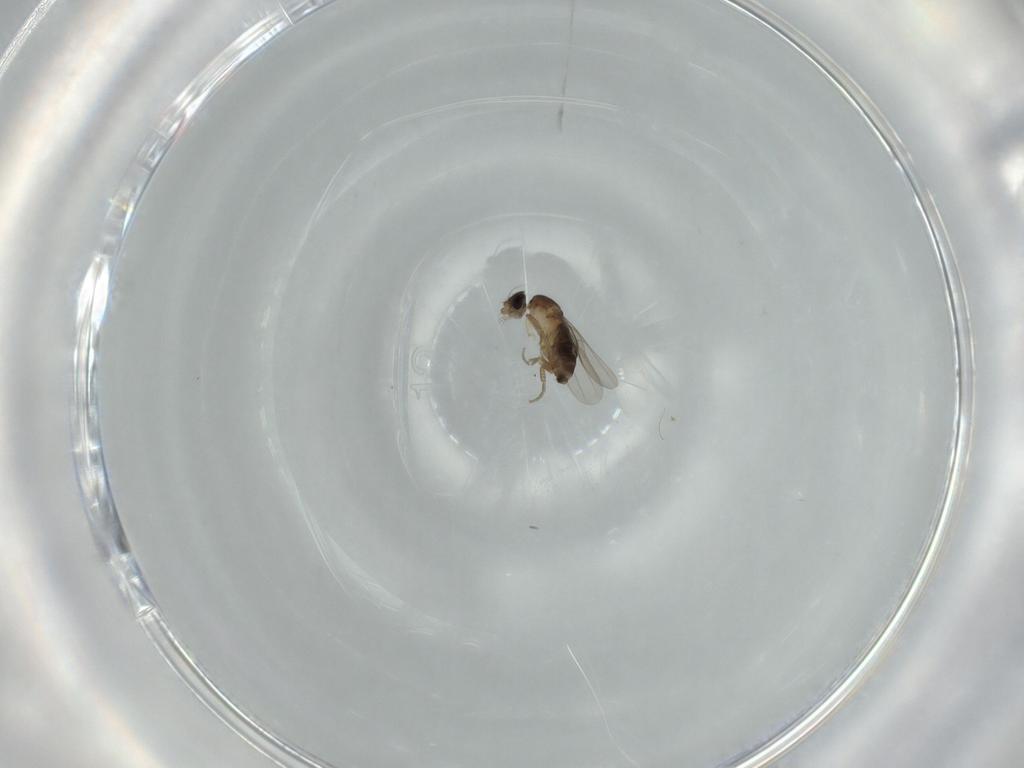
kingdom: Animalia
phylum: Arthropoda
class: Insecta
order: Diptera
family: Phoridae
